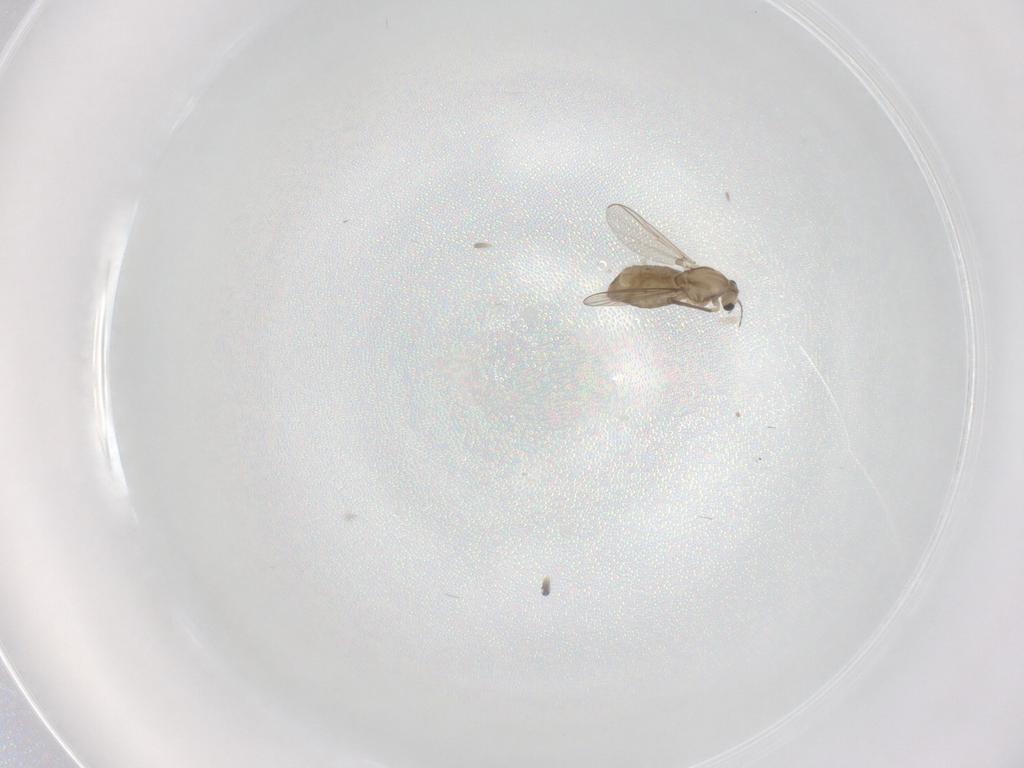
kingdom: Animalia
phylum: Arthropoda
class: Insecta
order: Diptera
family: Chironomidae
